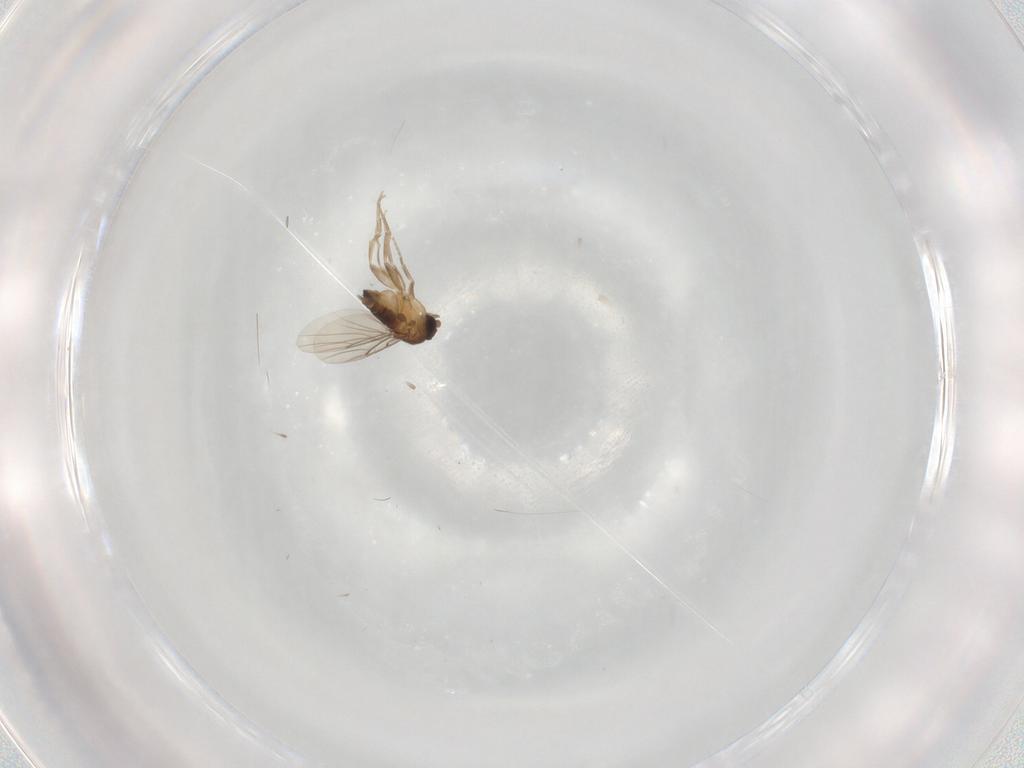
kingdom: Animalia
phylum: Arthropoda
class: Insecta
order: Diptera
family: Phoridae
